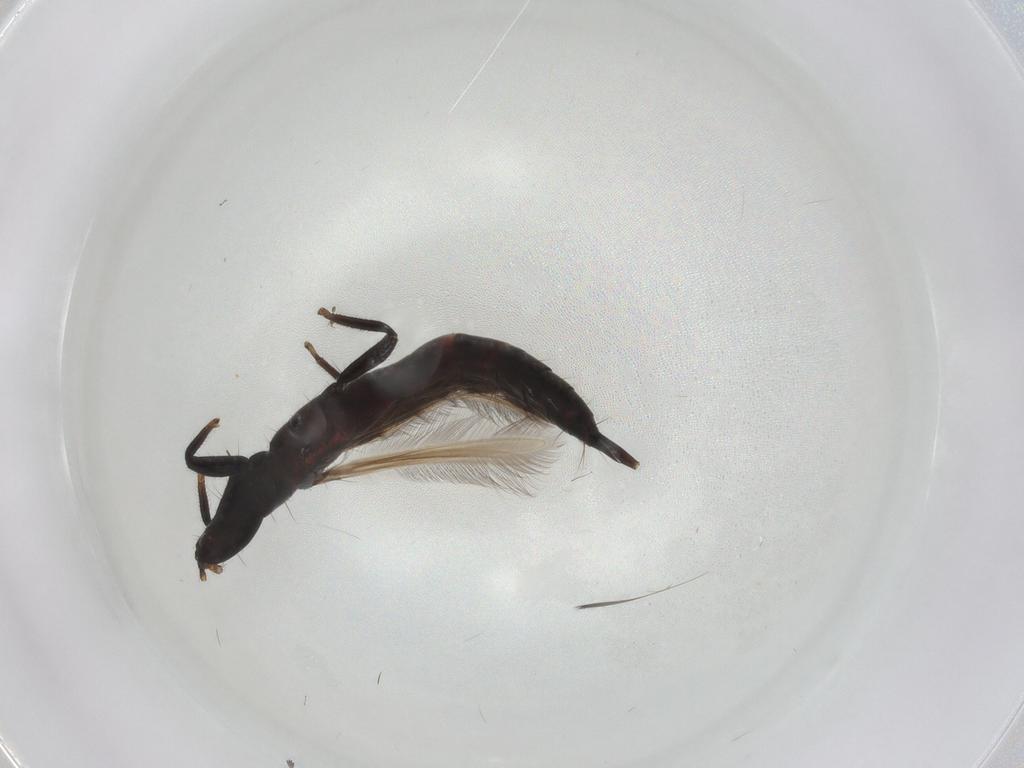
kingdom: Animalia
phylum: Arthropoda
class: Insecta
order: Thysanoptera
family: Phlaeothripidae
